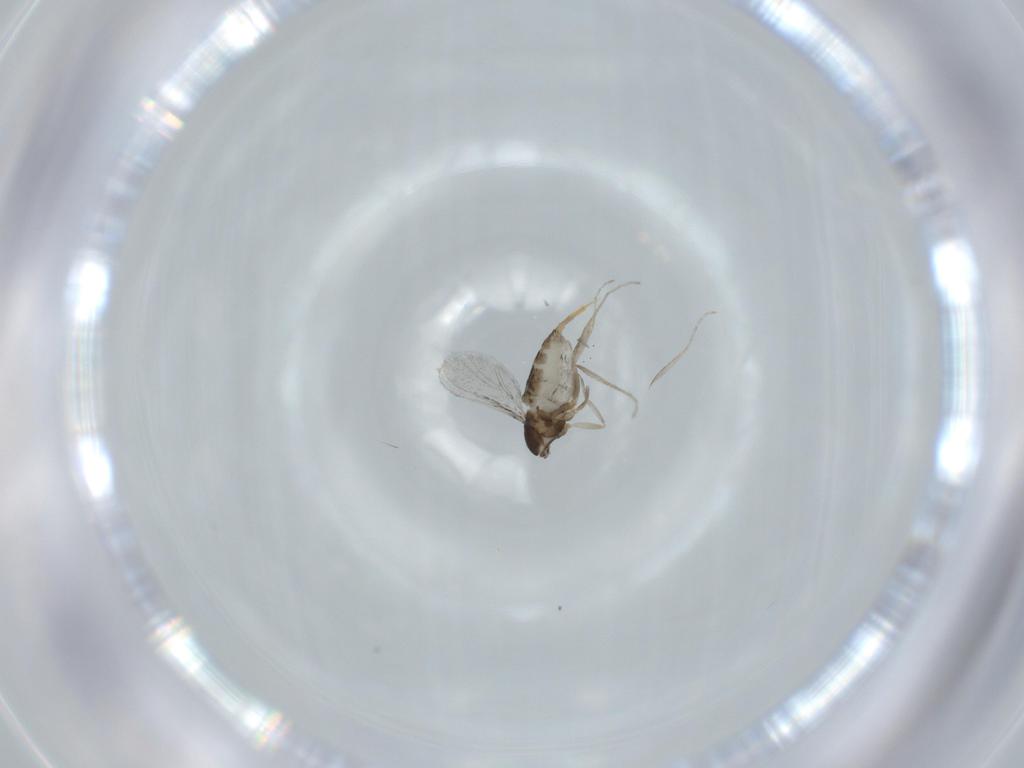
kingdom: Animalia
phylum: Arthropoda
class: Insecta
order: Diptera
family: Cecidomyiidae
